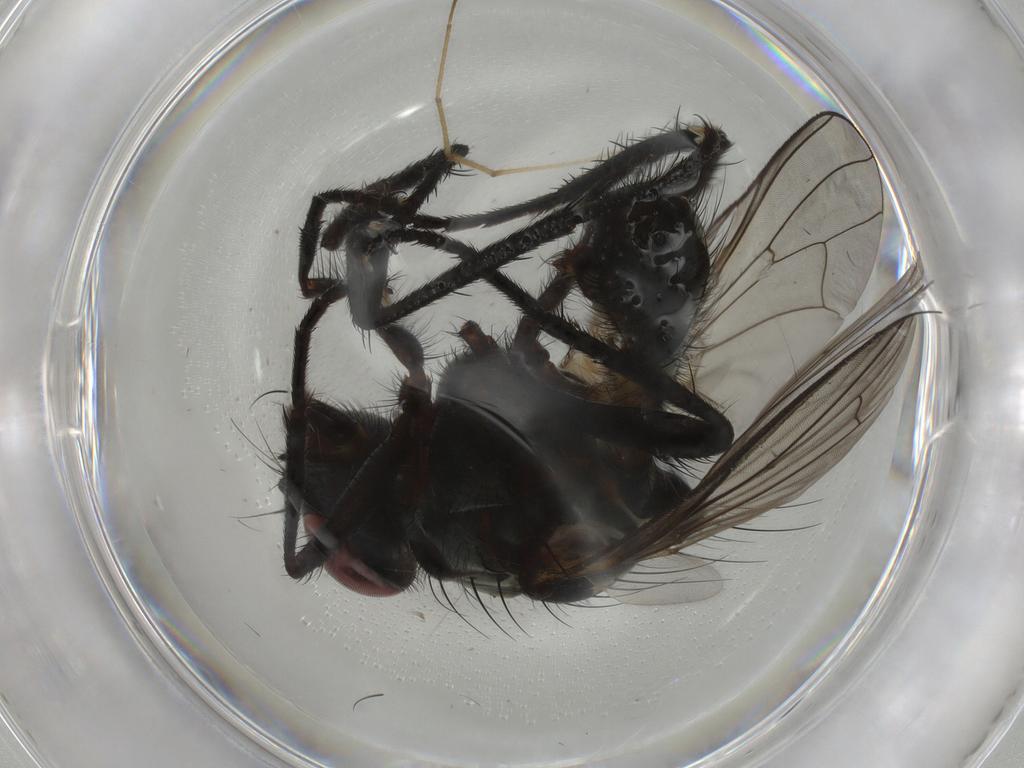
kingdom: Animalia
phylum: Arthropoda
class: Insecta
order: Diptera
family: Anthomyiidae
